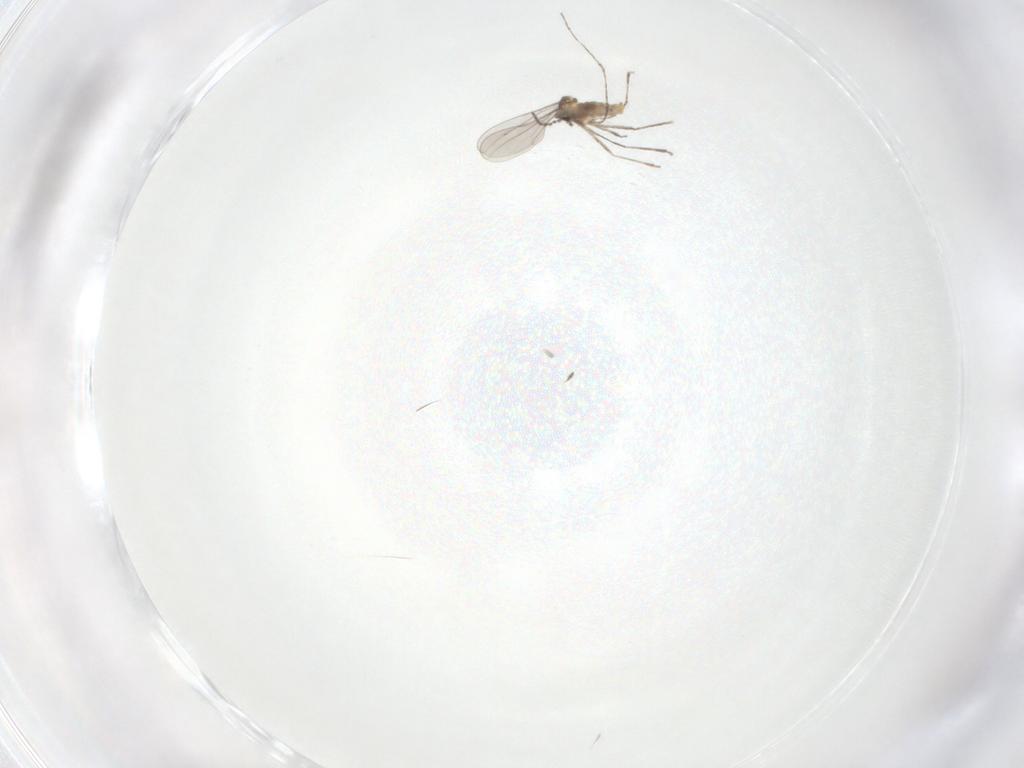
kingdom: Animalia
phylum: Arthropoda
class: Insecta
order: Diptera
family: Cecidomyiidae
